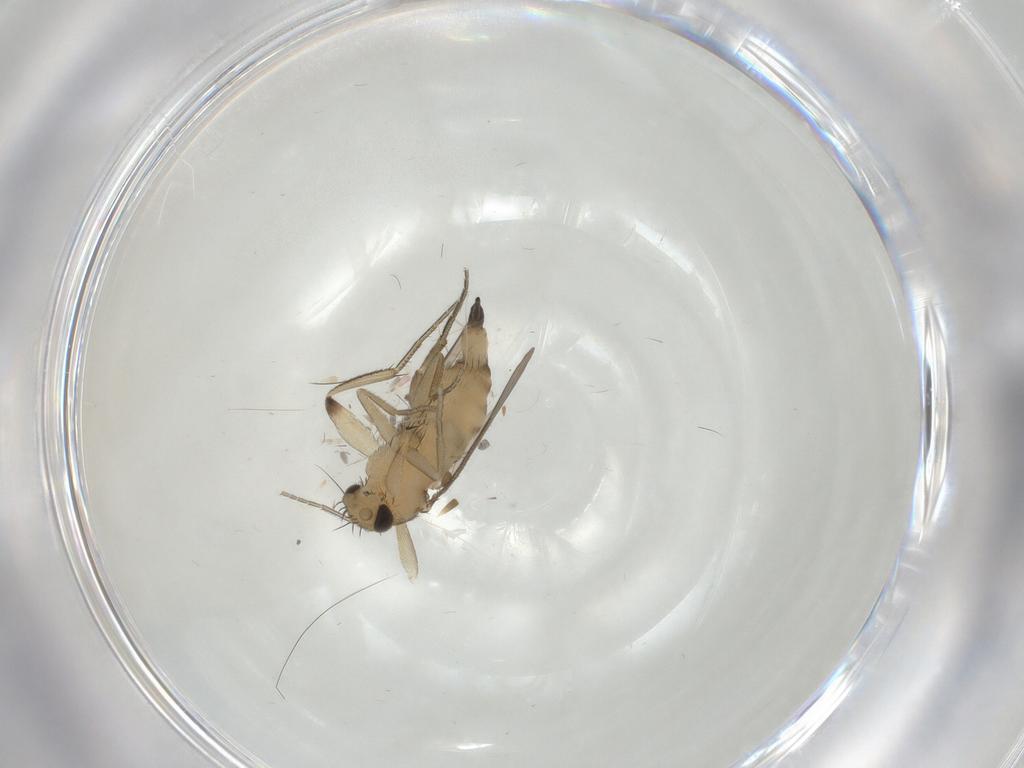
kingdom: Animalia
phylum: Arthropoda
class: Insecta
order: Diptera
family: Phoridae
